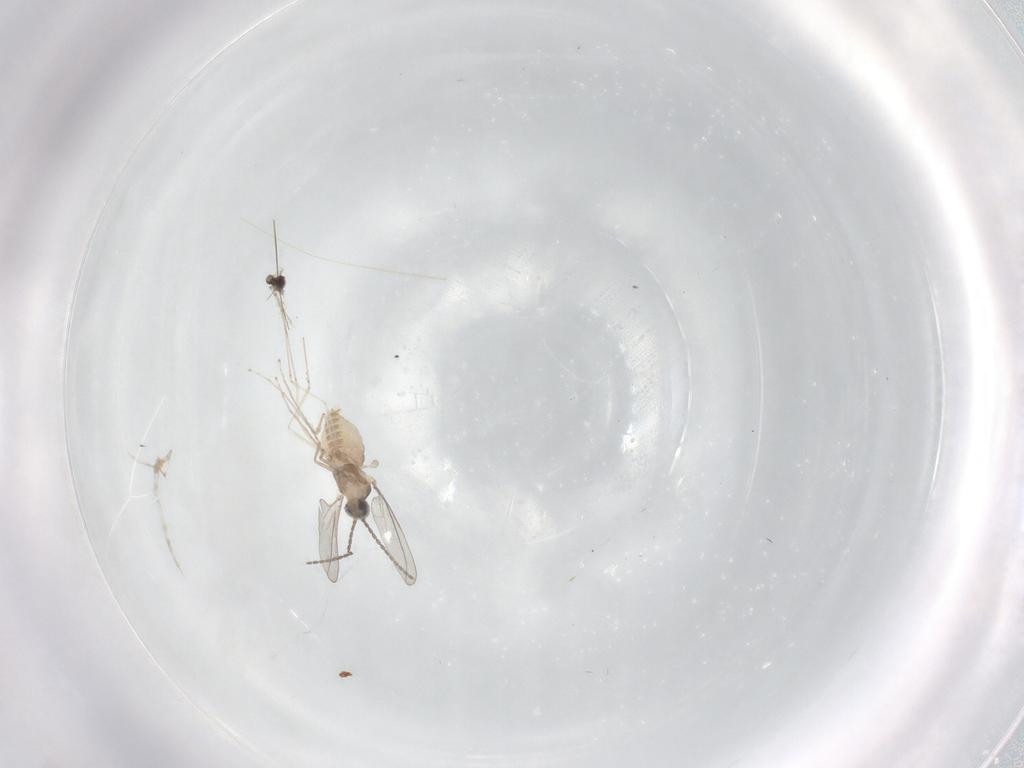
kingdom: Animalia
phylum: Arthropoda
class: Insecta
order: Diptera
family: Cecidomyiidae
